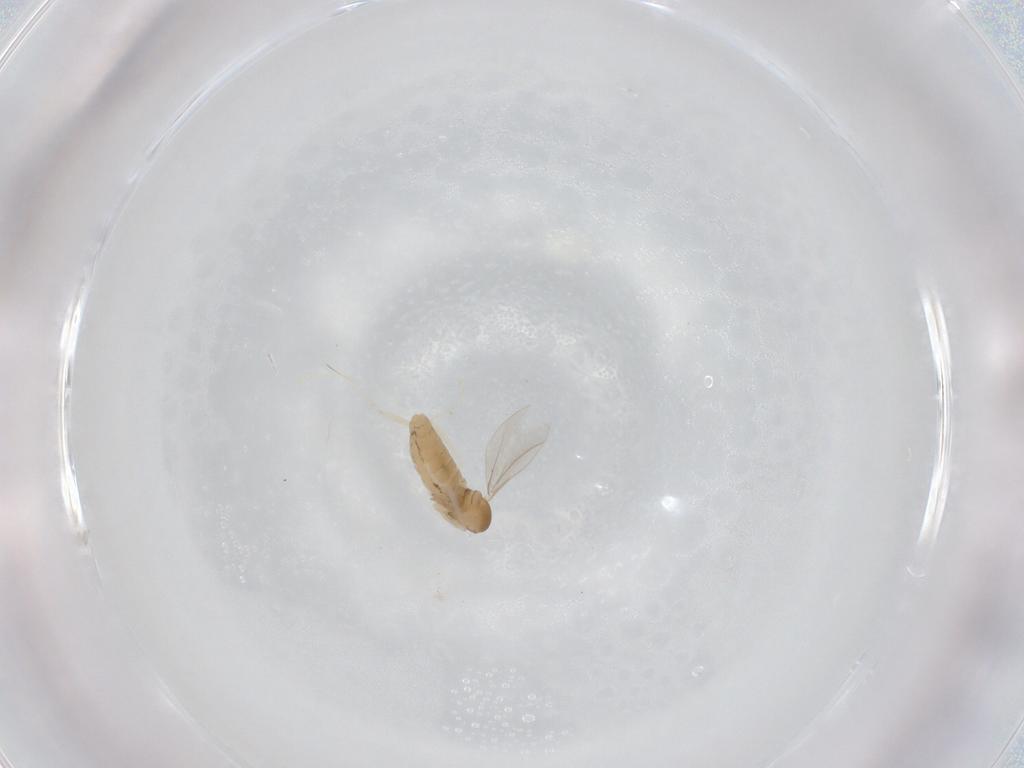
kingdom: Animalia
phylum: Arthropoda
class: Insecta
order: Diptera
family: Cecidomyiidae
